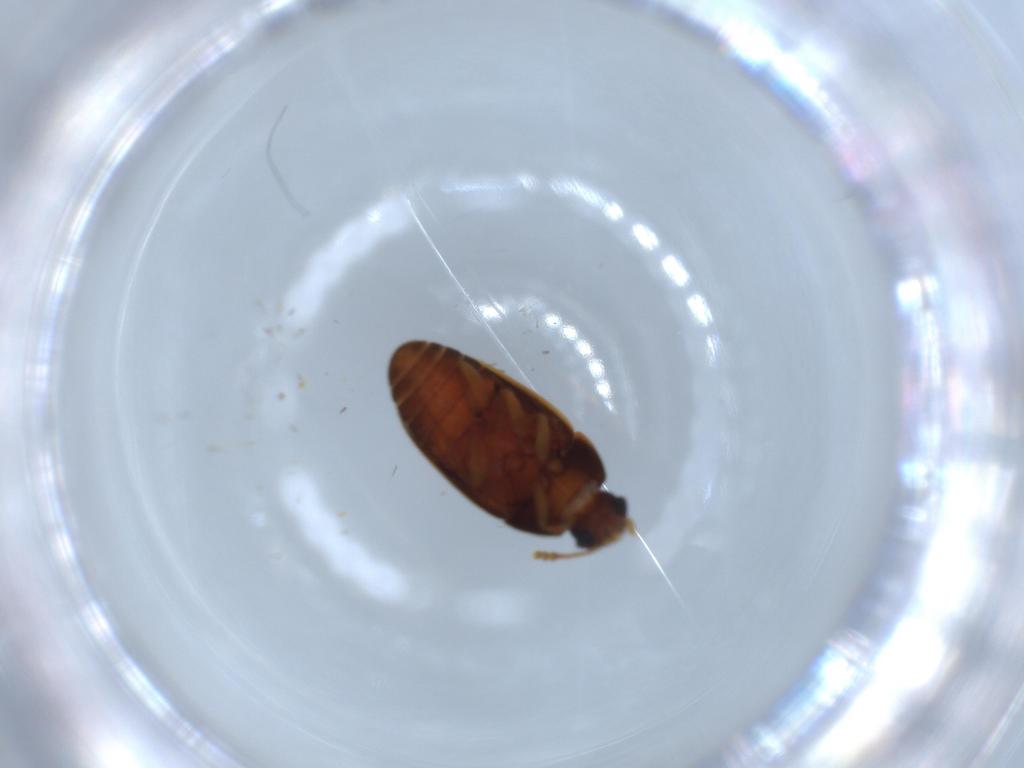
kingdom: Animalia
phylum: Arthropoda
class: Insecta
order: Coleoptera
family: Mycetophagidae
